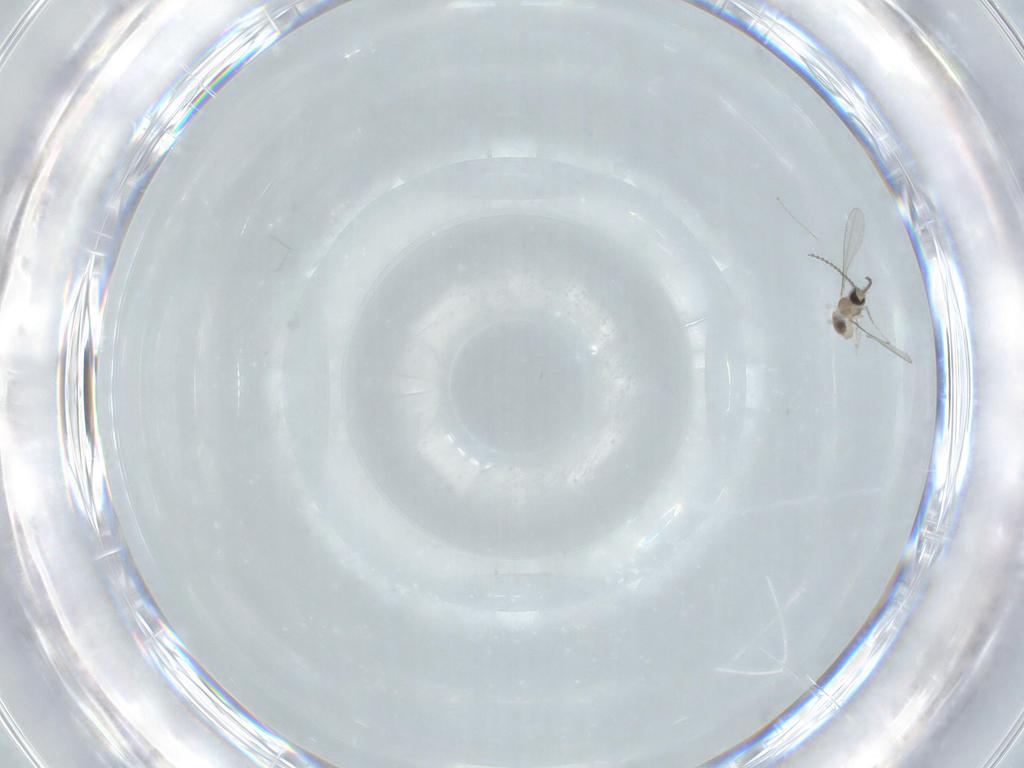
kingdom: Animalia
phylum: Arthropoda
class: Insecta
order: Diptera
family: Cecidomyiidae
